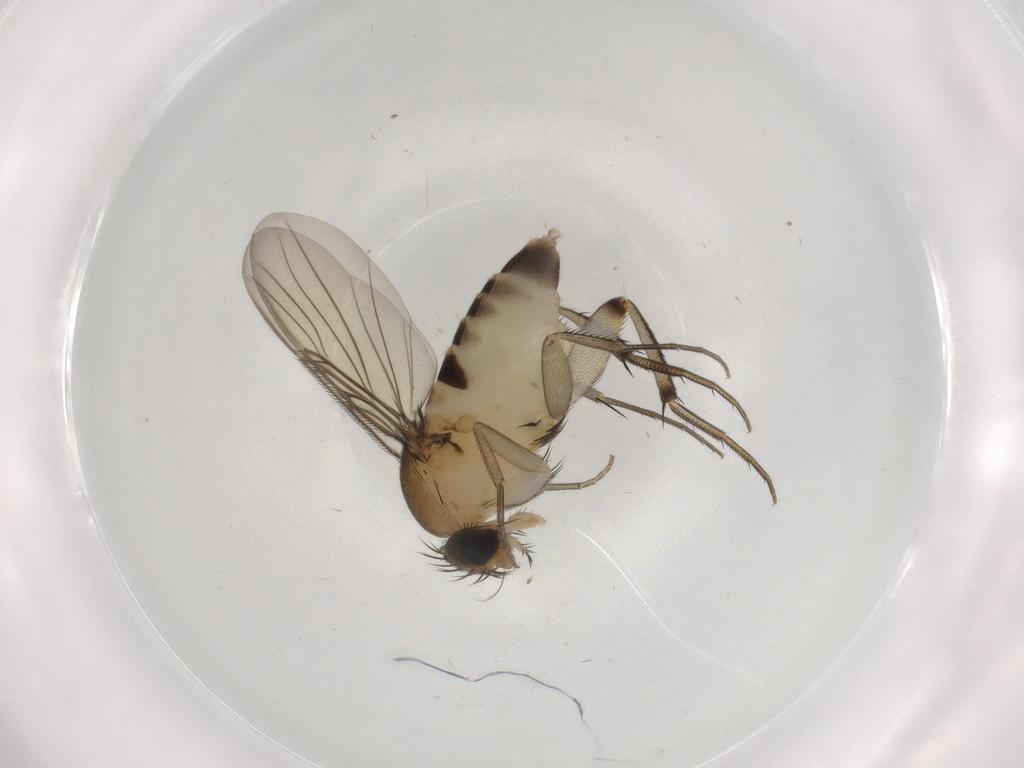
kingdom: Animalia
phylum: Arthropoda
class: Insecta
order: Diptera
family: Phoridae
